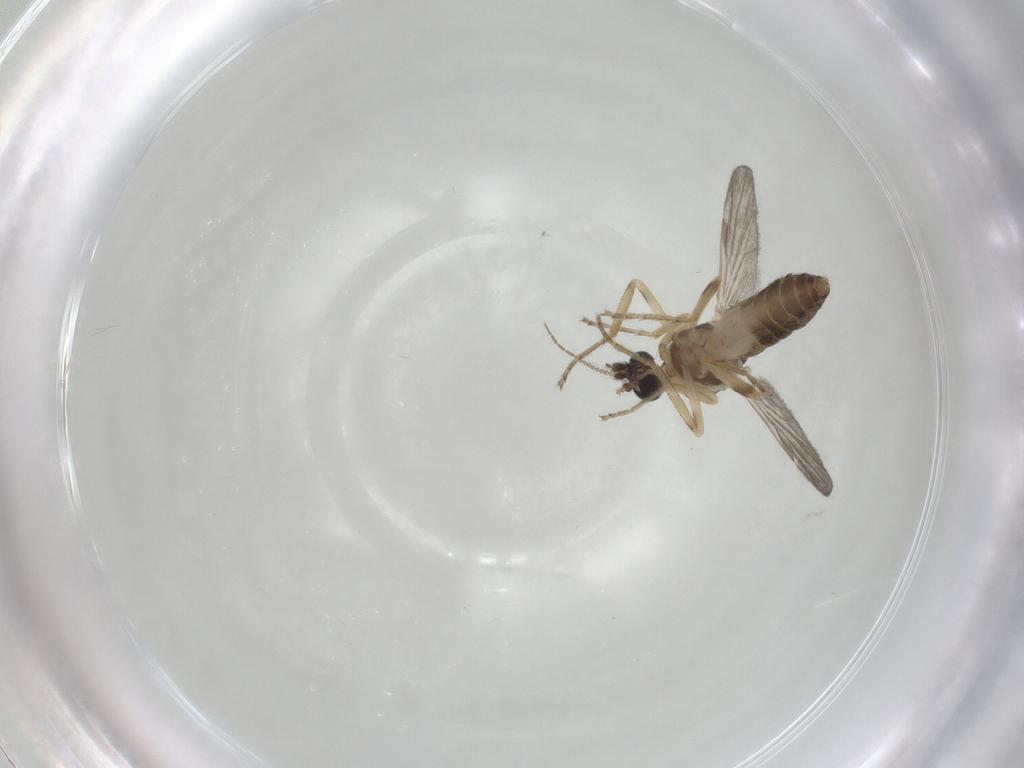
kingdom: Animalia
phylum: Arthropoda
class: Insecta
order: Diptera
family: Ceratopogonidae
